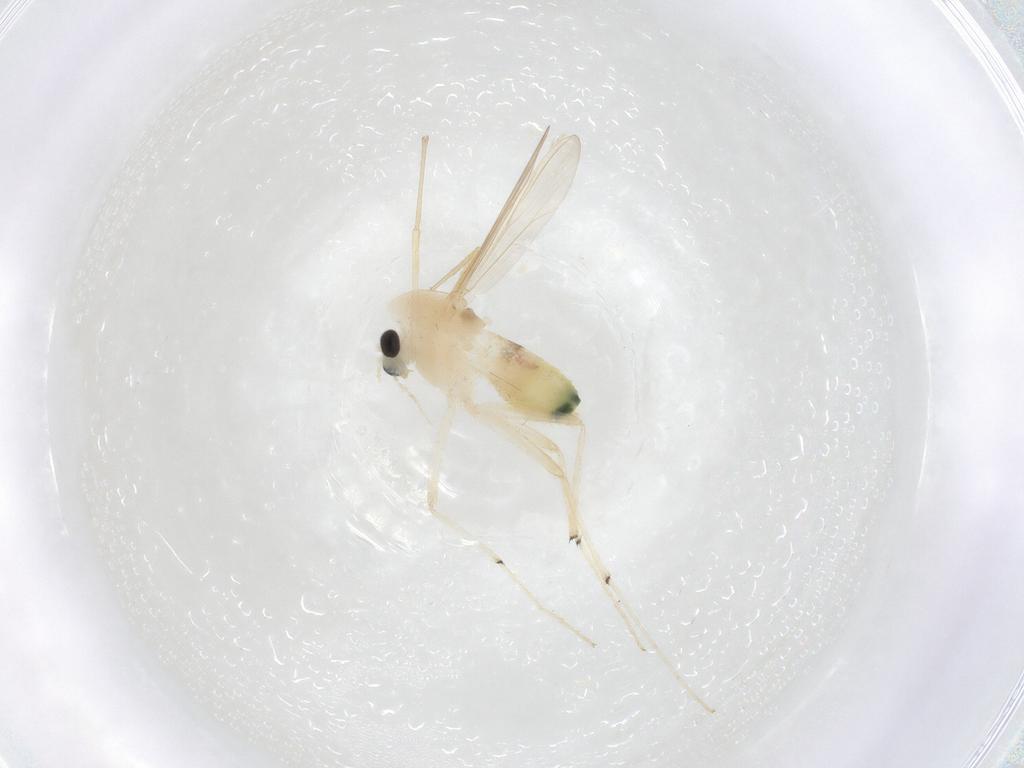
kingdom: Animalia
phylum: Arthropoda
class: Insecta
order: Diptera
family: Chironomidae
